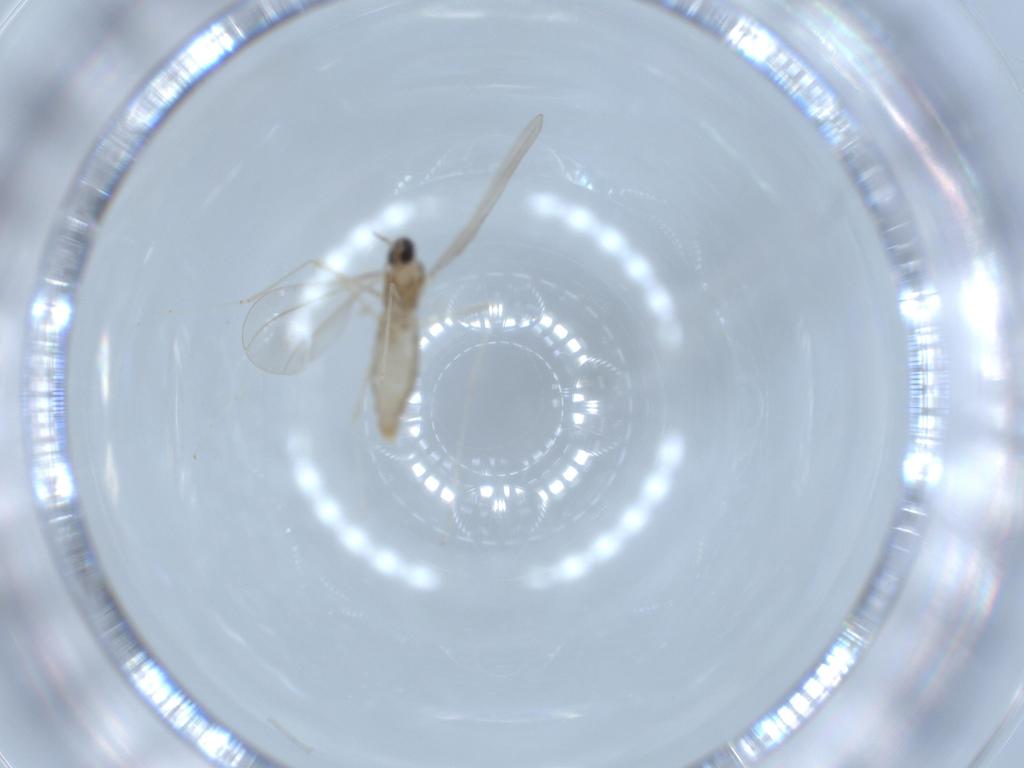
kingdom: Animalia
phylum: Arthropoda
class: Insecta
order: Diptera
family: Cecidomyiidae
